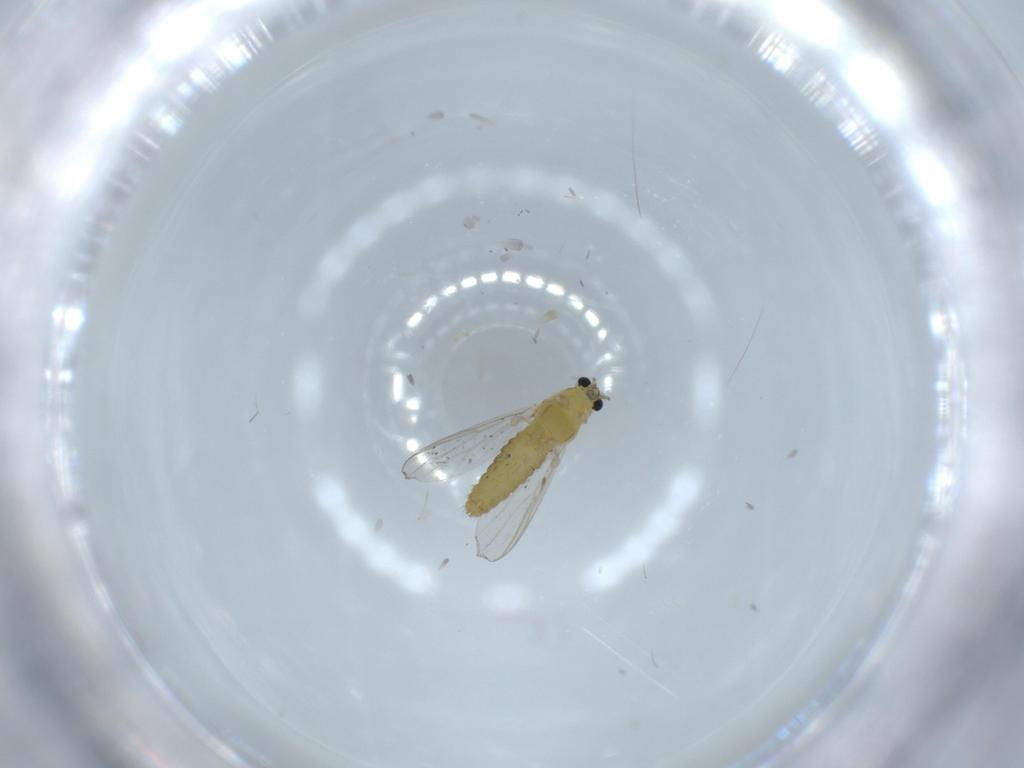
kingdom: Animalia
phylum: Arthropoda
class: Insecta
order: Diptera
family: Chironomidae
